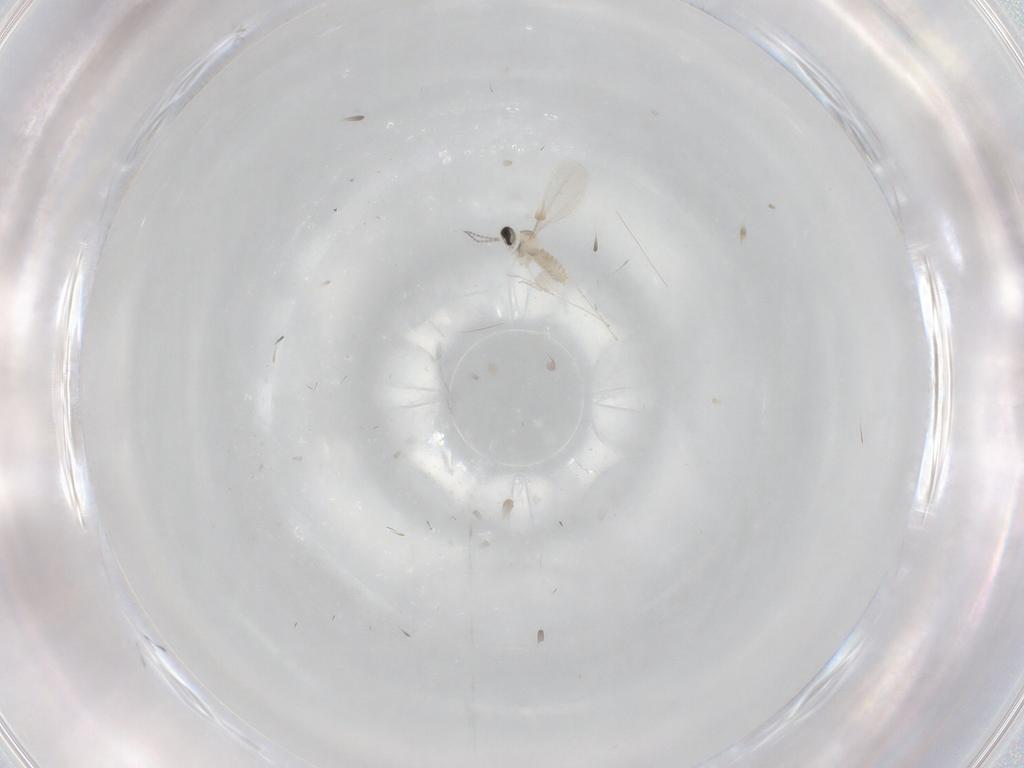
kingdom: Animalia
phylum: Arthropoda
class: Insecta
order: Diptera
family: Cecidomyiidae
